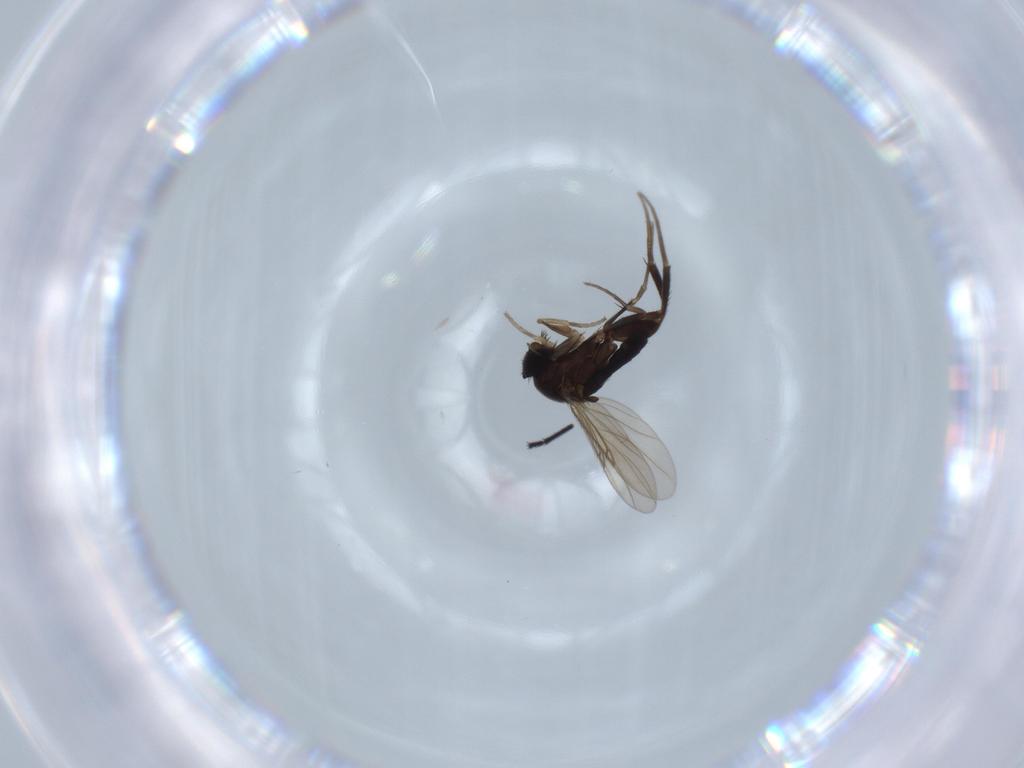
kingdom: Animalia
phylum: Arthropoda
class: Insecta
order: Diptera
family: Phoridae
